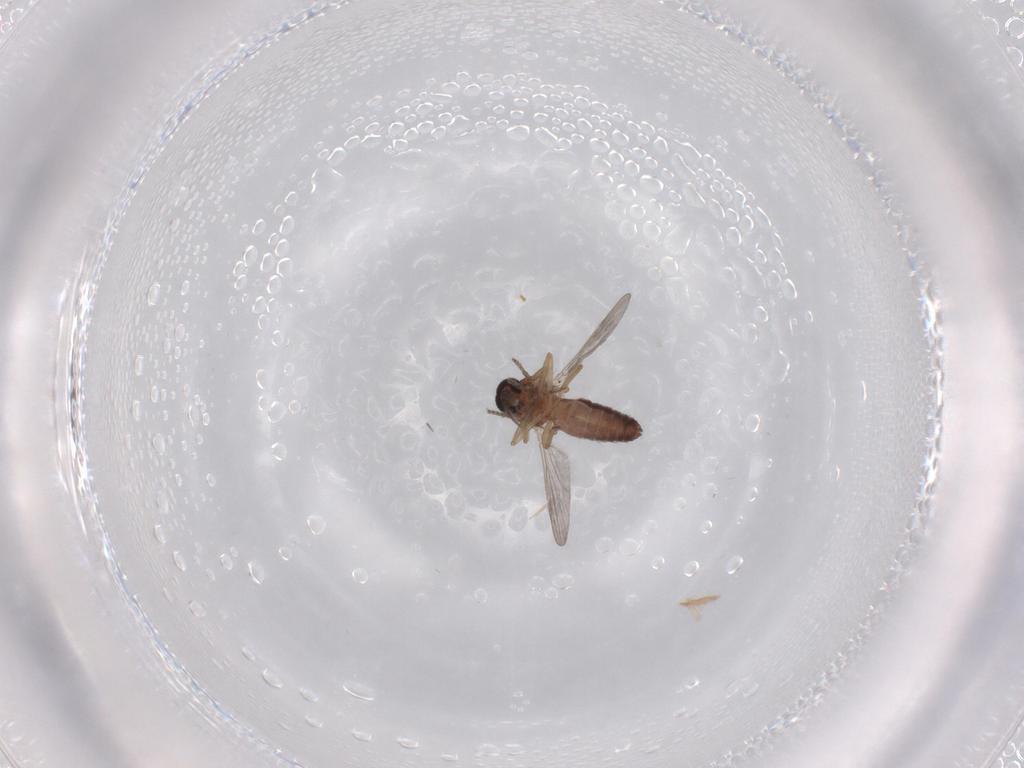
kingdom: Animalia
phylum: Arthropoda
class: Insecta
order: Diptera
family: Ceratopogonidae
